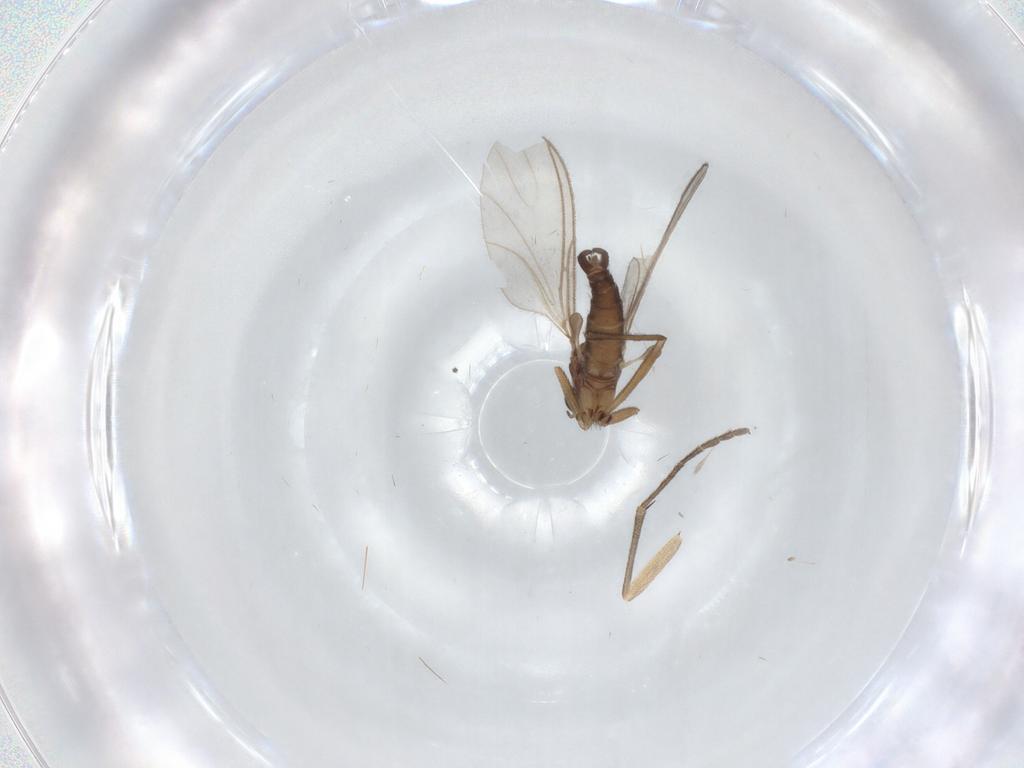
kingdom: Animalia
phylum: Arthropoda
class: Insecta
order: Diptera
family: Sciaridae
